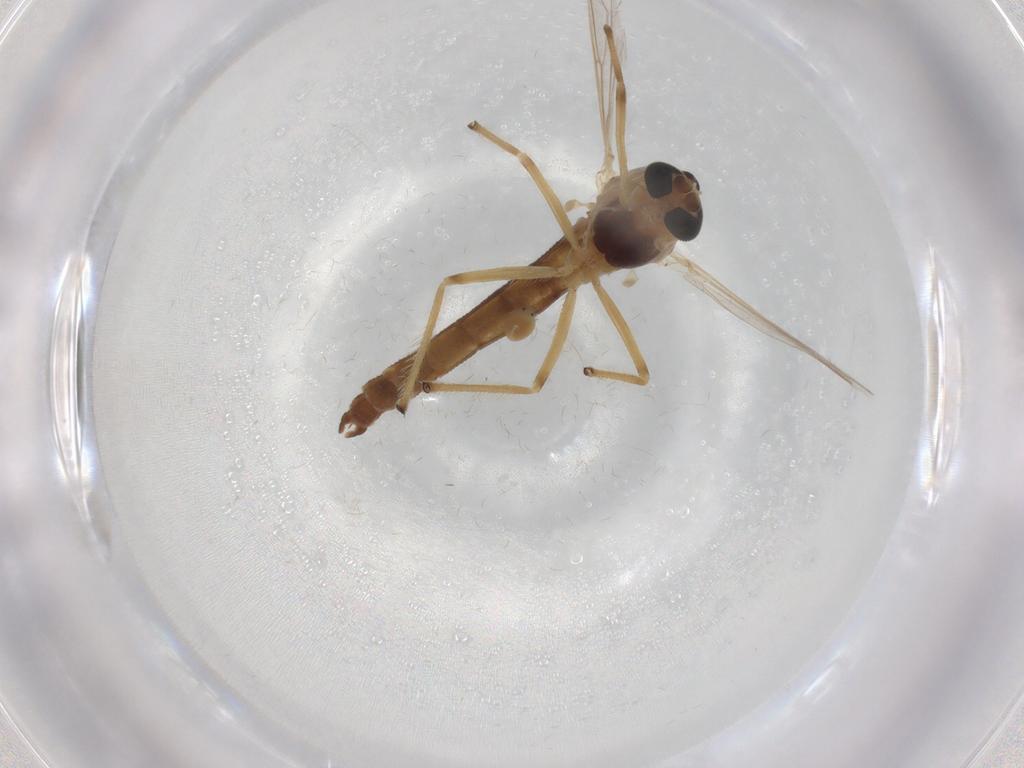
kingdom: Animalia
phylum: Arthropoda
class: Insecta
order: Diptera
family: Chironomidae
